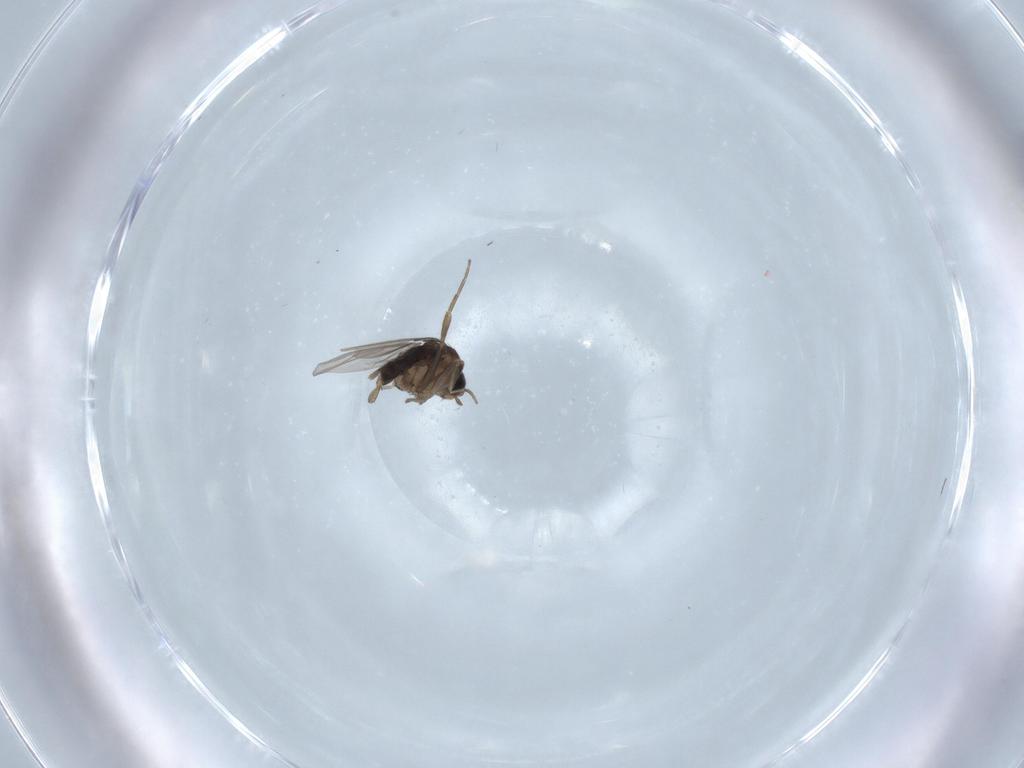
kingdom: Animalia
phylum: Arthropoda
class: Insecta
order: Diptera
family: Phoridae
